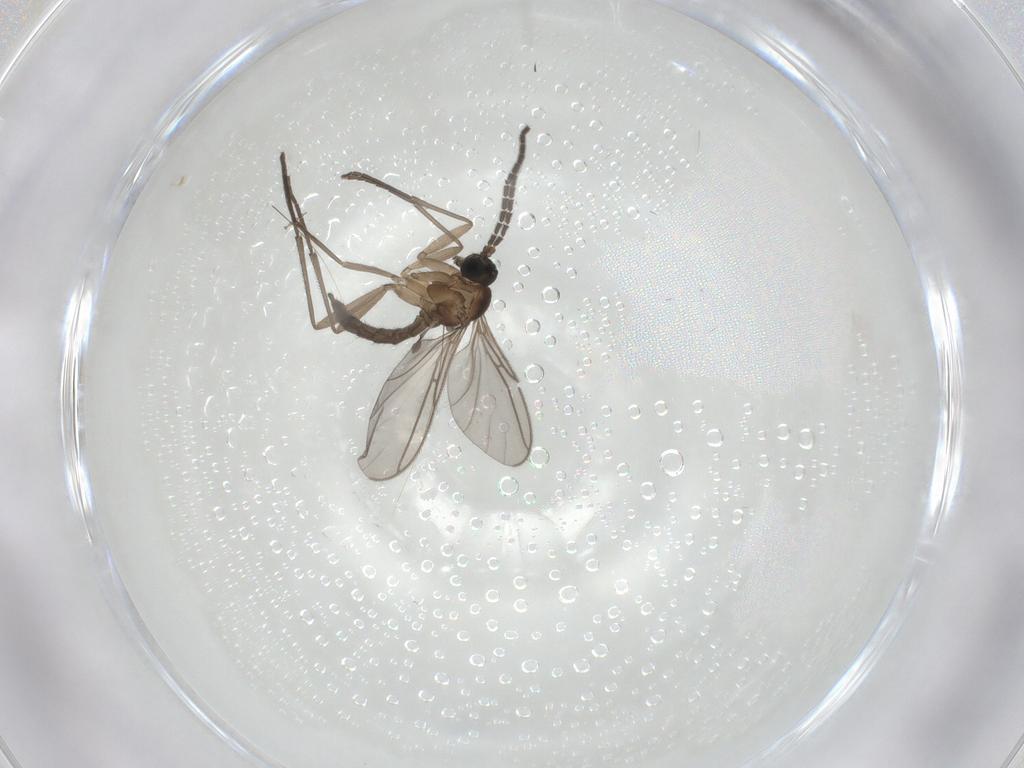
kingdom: Animalia
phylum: Arthropoda
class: Insecta
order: Diptera
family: Sciaridae
